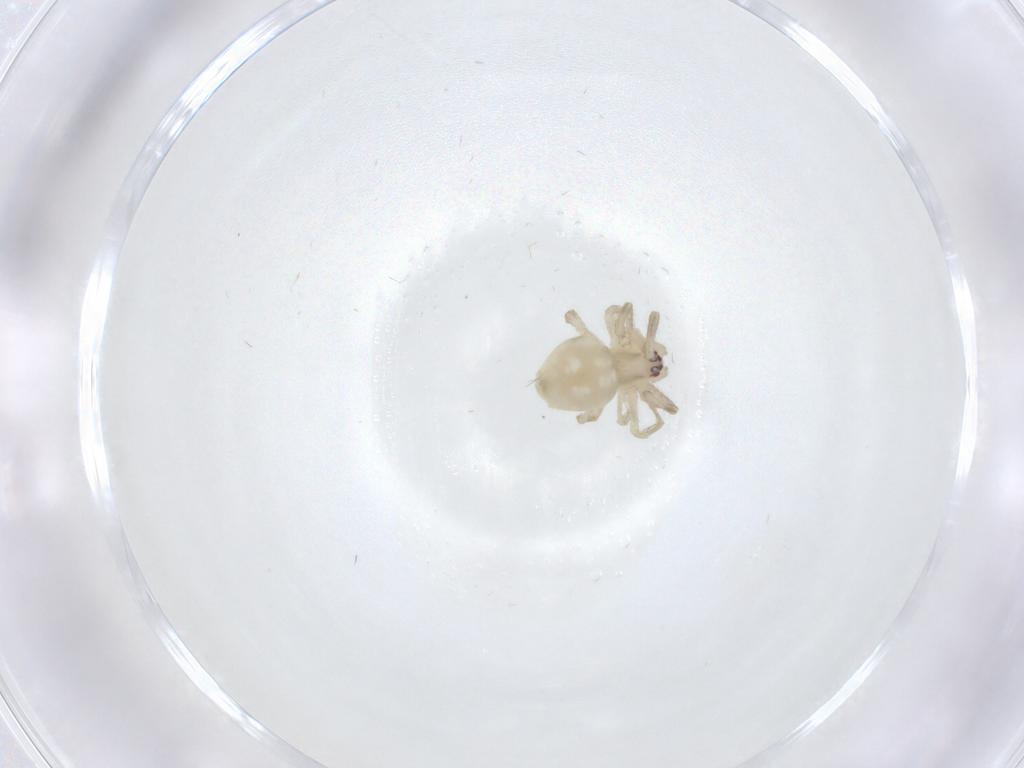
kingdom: Animalia
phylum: Arthropoda
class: Arachnida
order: Araneae
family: Theridiidae
